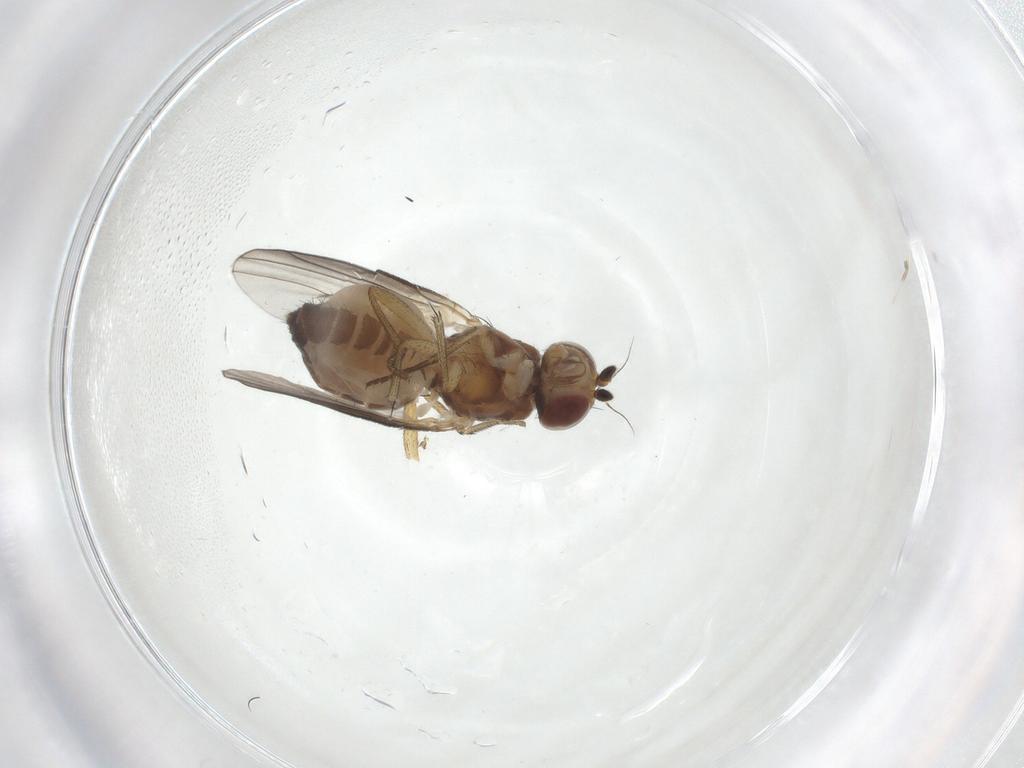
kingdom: Animalia
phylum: Arthropoda
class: Insecta
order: Diptera
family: Heleomyzidae
